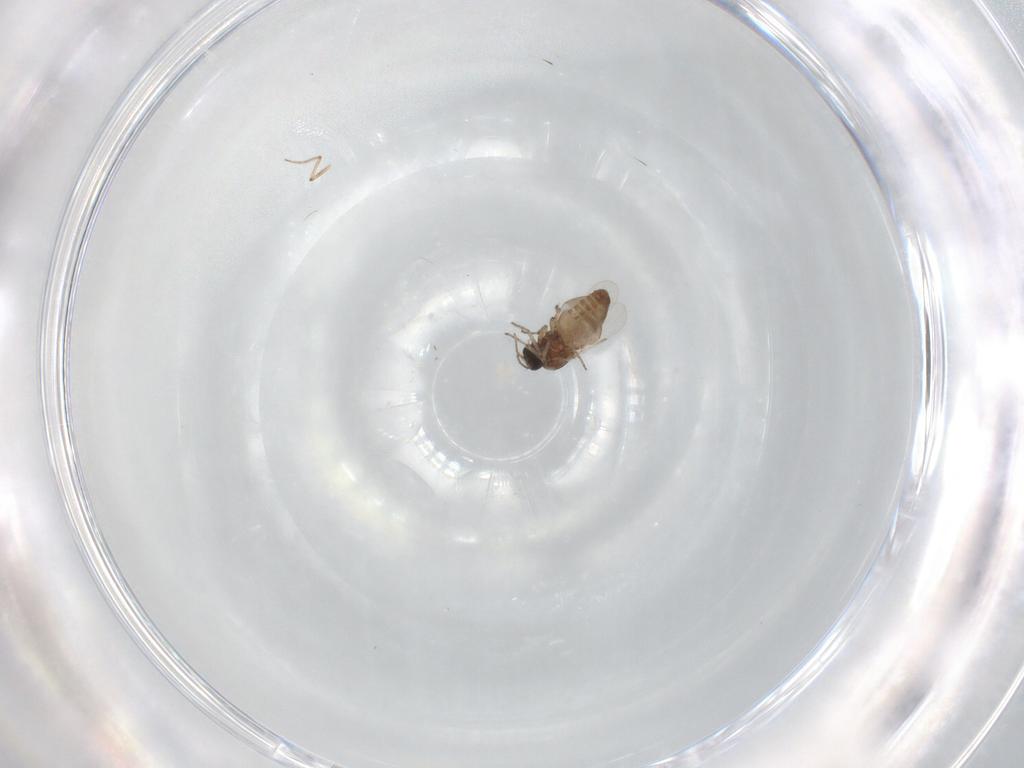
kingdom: Animalia
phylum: Arthropoda
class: Insecta
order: Diptera
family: Ceratopogonidae
